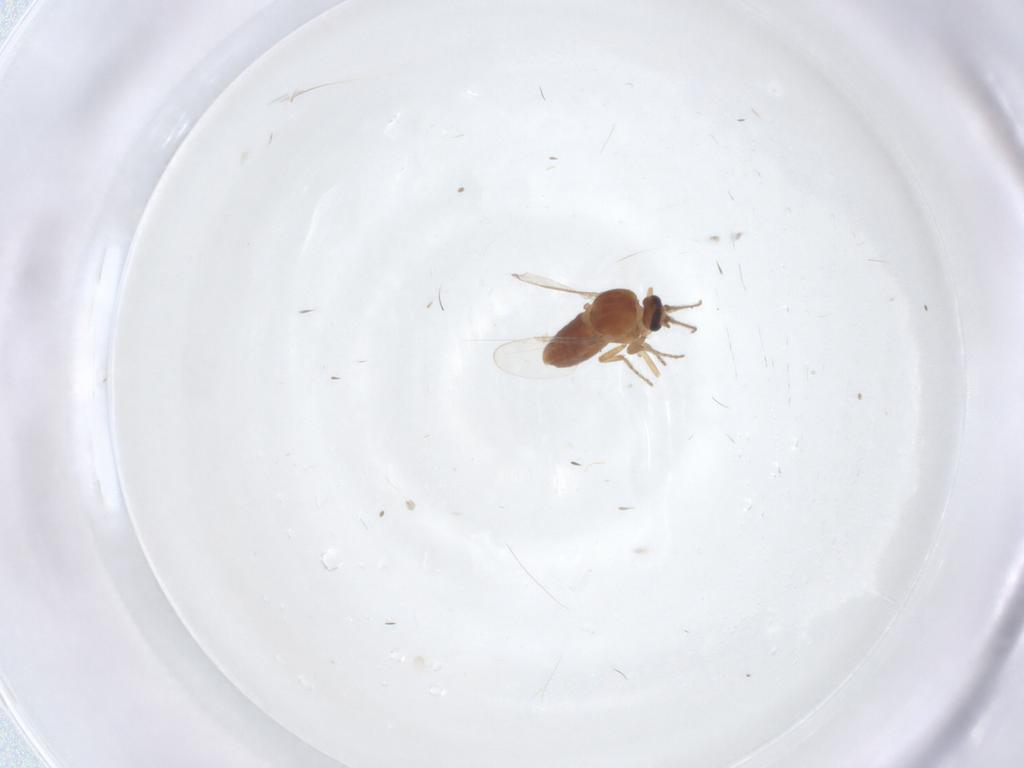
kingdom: Animalia
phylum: Arthropoda
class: Insecta
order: Diptera
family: Ceratopogonidae
